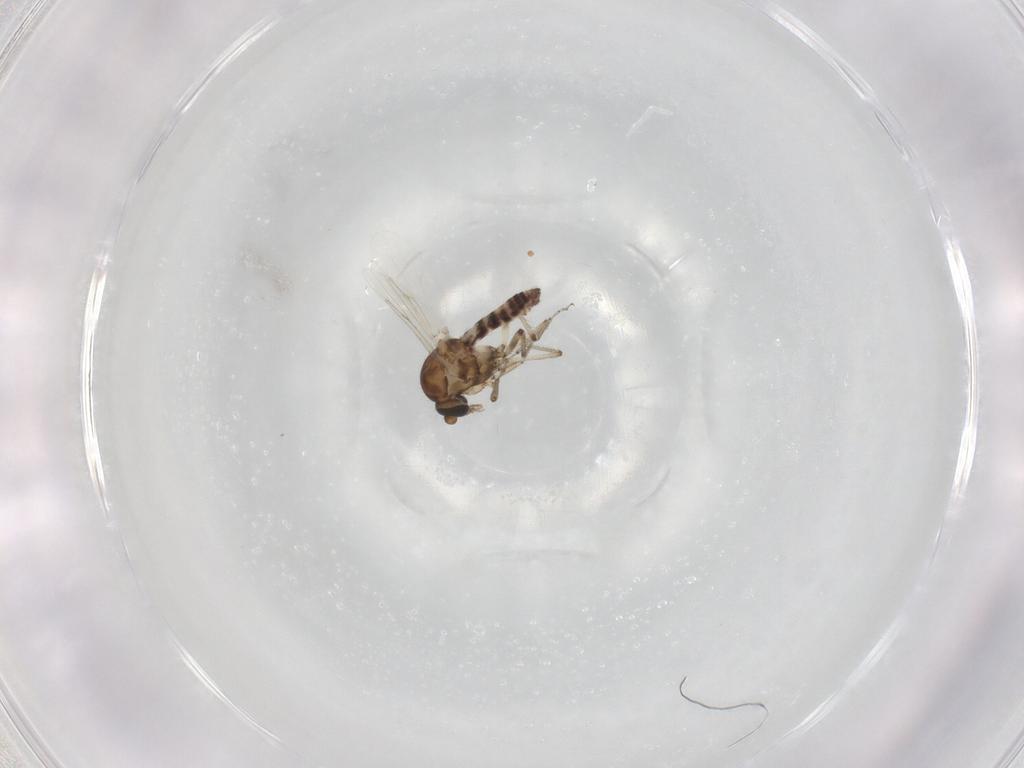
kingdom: Animalia
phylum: Arthropoda
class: Insecta
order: Diptera
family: Ceratopogonidae
